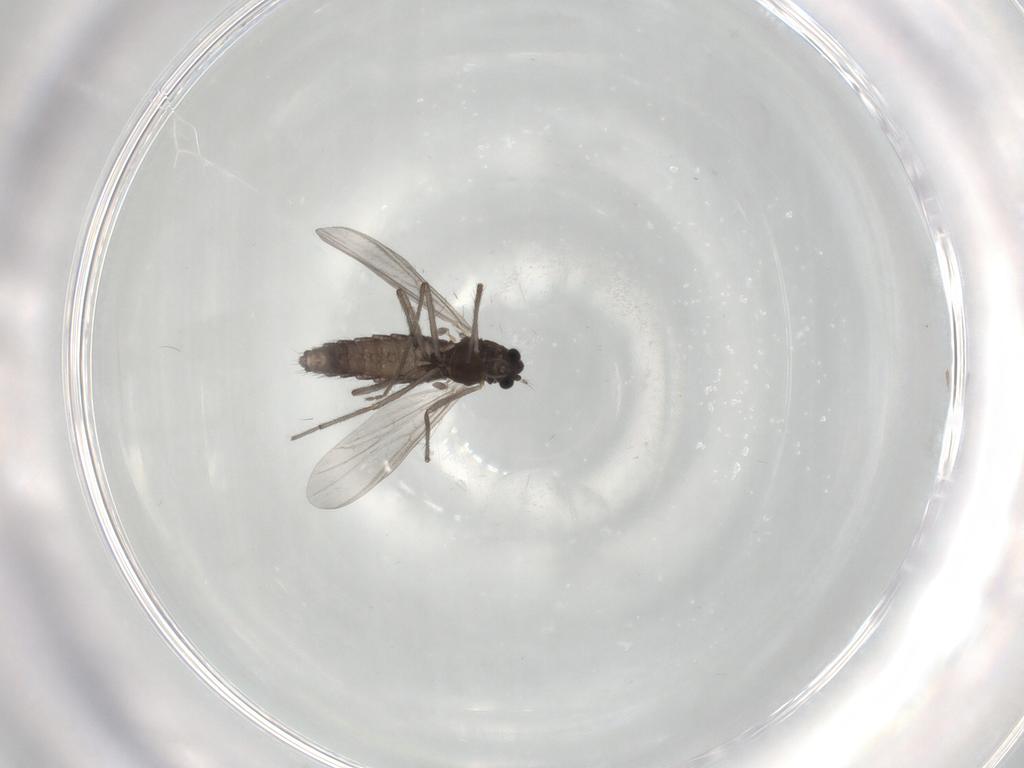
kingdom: Animalia
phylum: Arthropoda
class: Insecta
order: Diptera
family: Chironomidae
